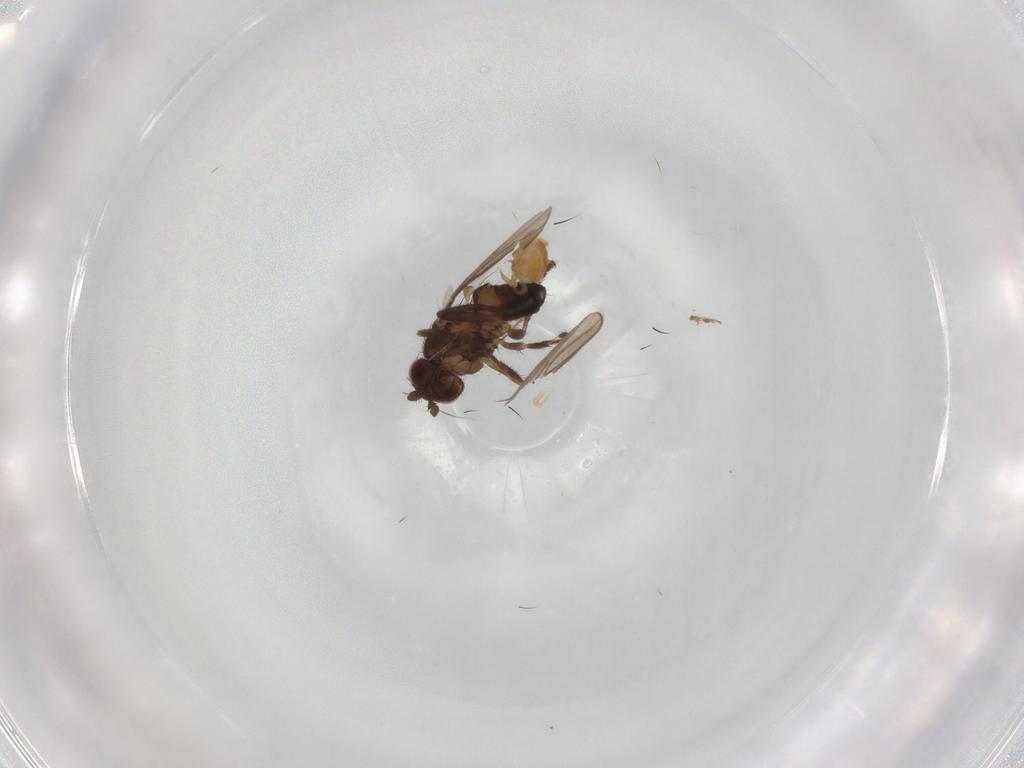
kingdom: Animalia
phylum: Arthropoda
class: Insecta
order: Diptera
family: Sphaeroceridae
